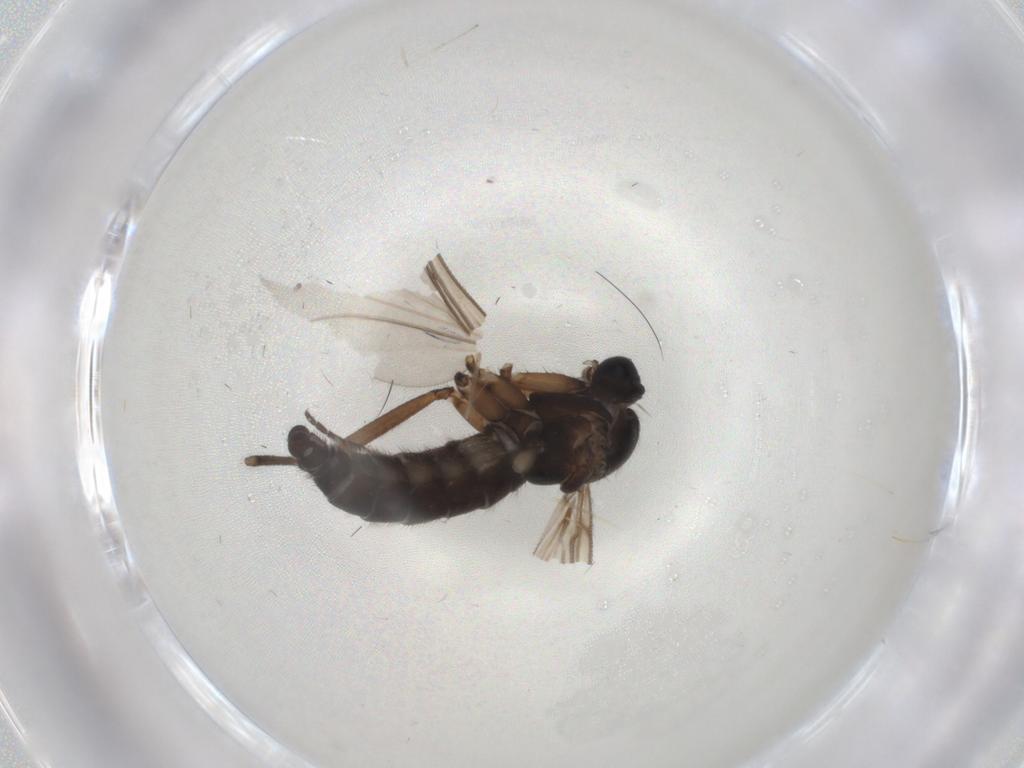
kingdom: Animalia
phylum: Arthropoda
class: Insecta
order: Diptera
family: Sciaridae
